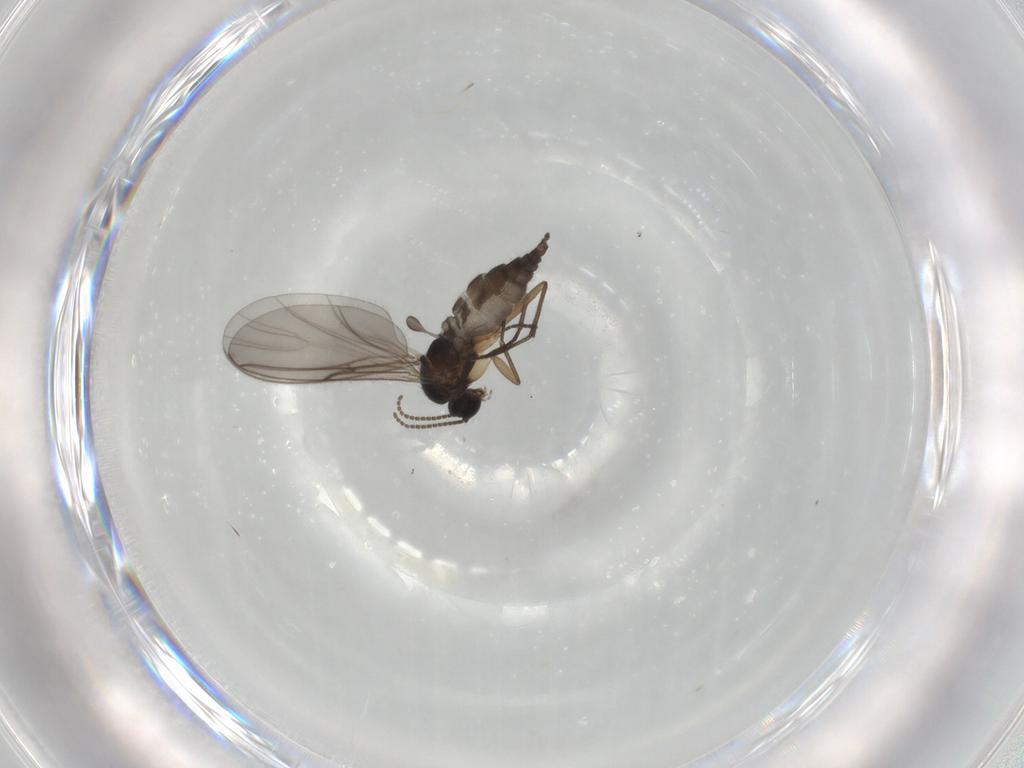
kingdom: Animalia
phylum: Arthropoda
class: Insecta
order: Diptera
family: Sciaridae
